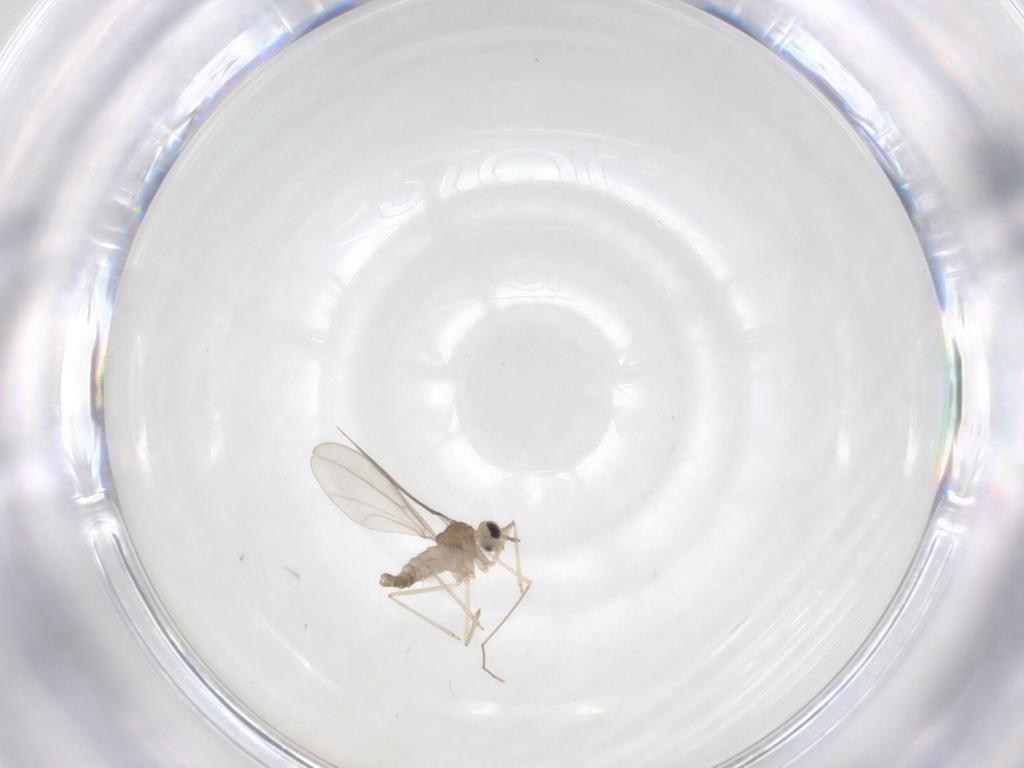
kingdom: Animalia
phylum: Arthropoda
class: Insecta
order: Diptera
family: Cecidomyiidae
